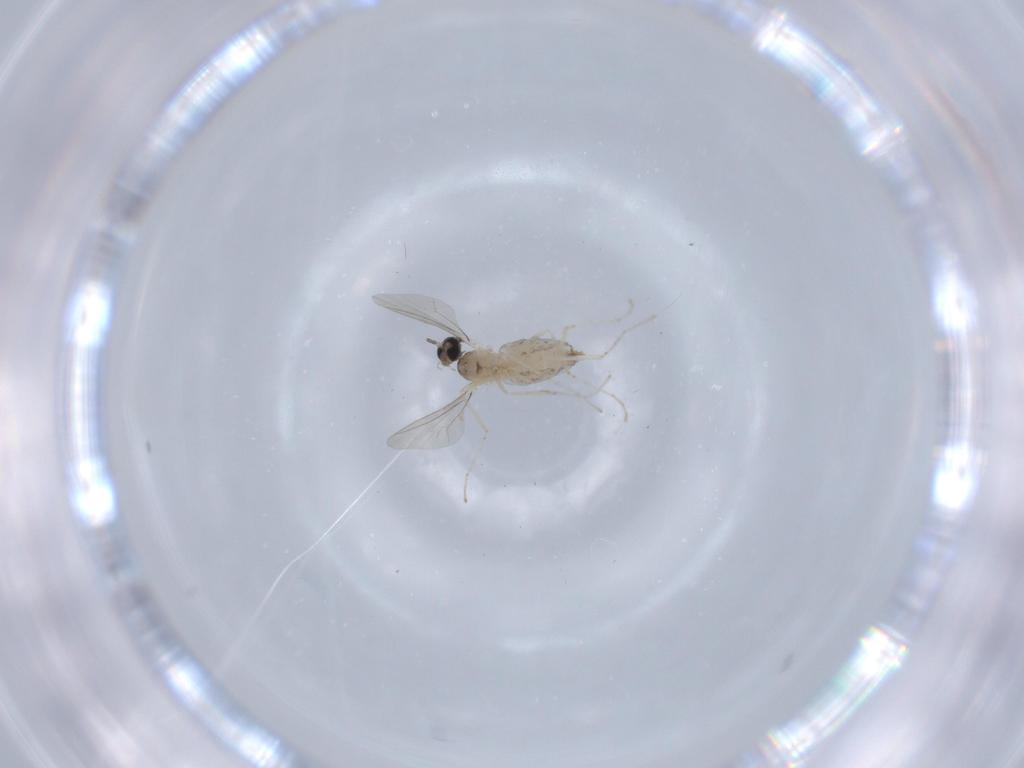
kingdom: Animalia
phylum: Arthropoda
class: Insecta
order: Diptera
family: Cecidomyiidae
